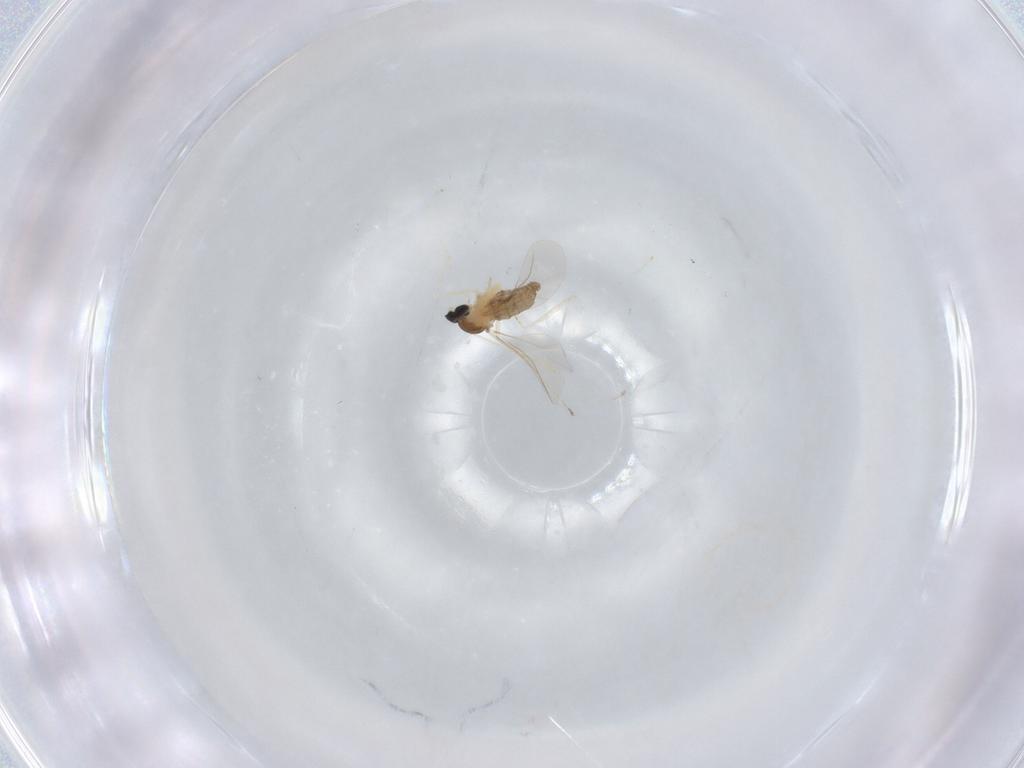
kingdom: Animalia
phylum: Arthropoda
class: Insecta
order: Diptera
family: Cecidomyiidae
